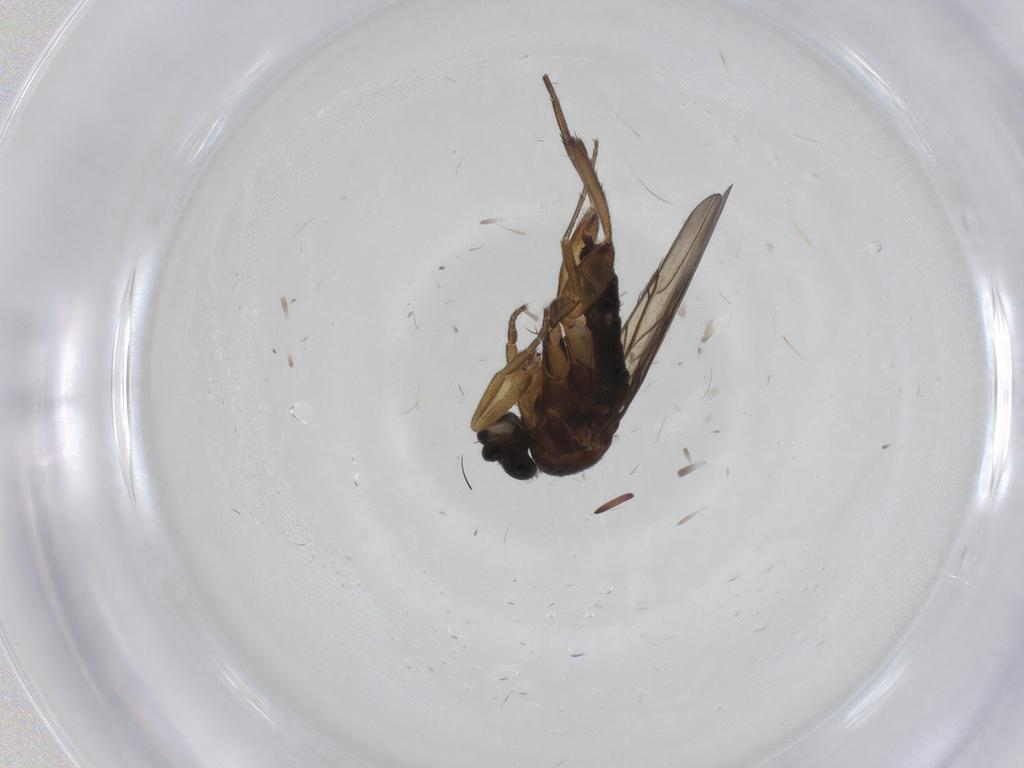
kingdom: Animalia
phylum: Arthropoda
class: Insecta
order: Diptera
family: Phoridae
